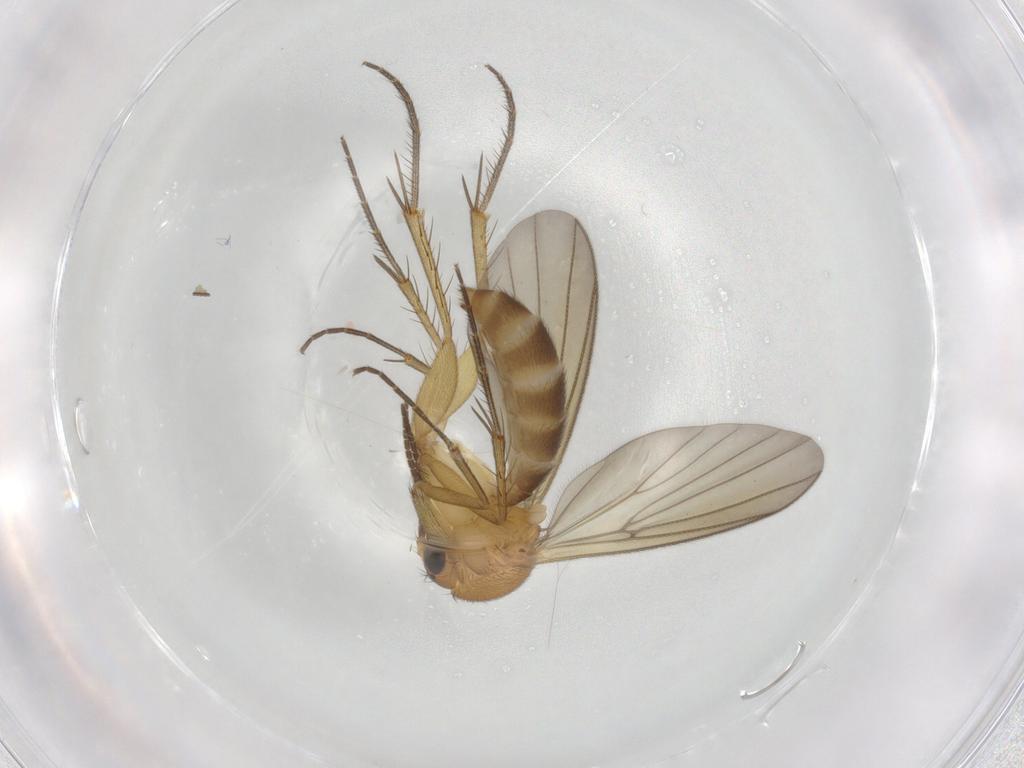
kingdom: Animalia
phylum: Arthropoda
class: Insecta
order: Diptera
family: Mycetophilidae
